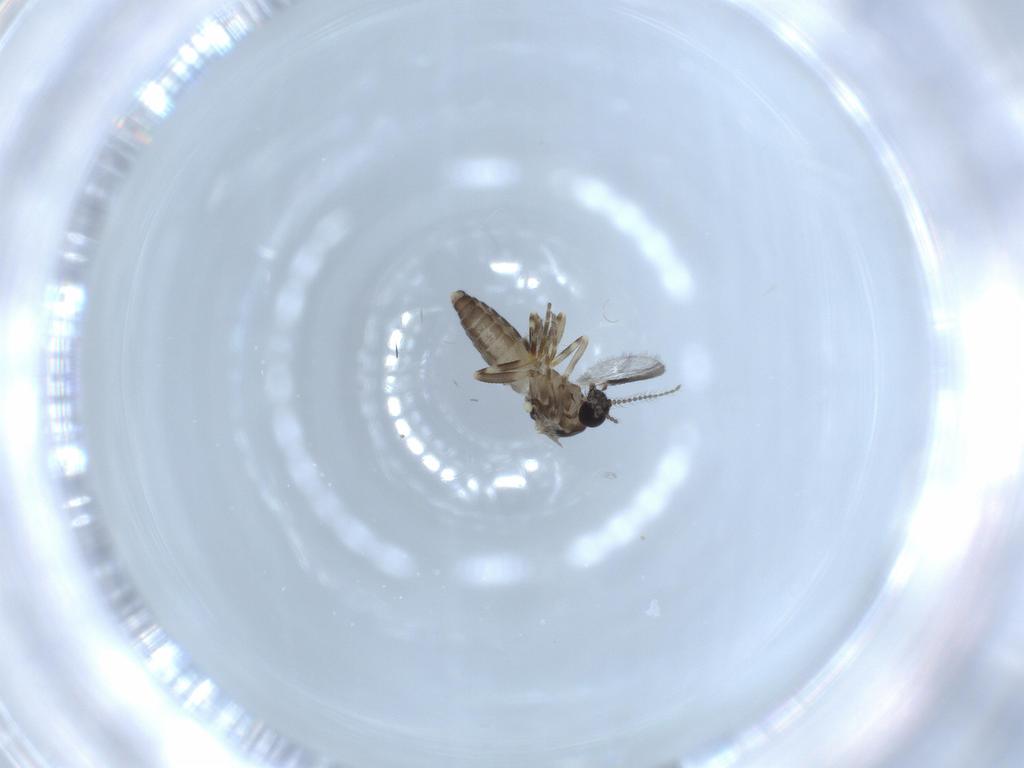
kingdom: Animalia
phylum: Arthropoda
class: Insecta
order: Diptera
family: Ceratopogonidae
